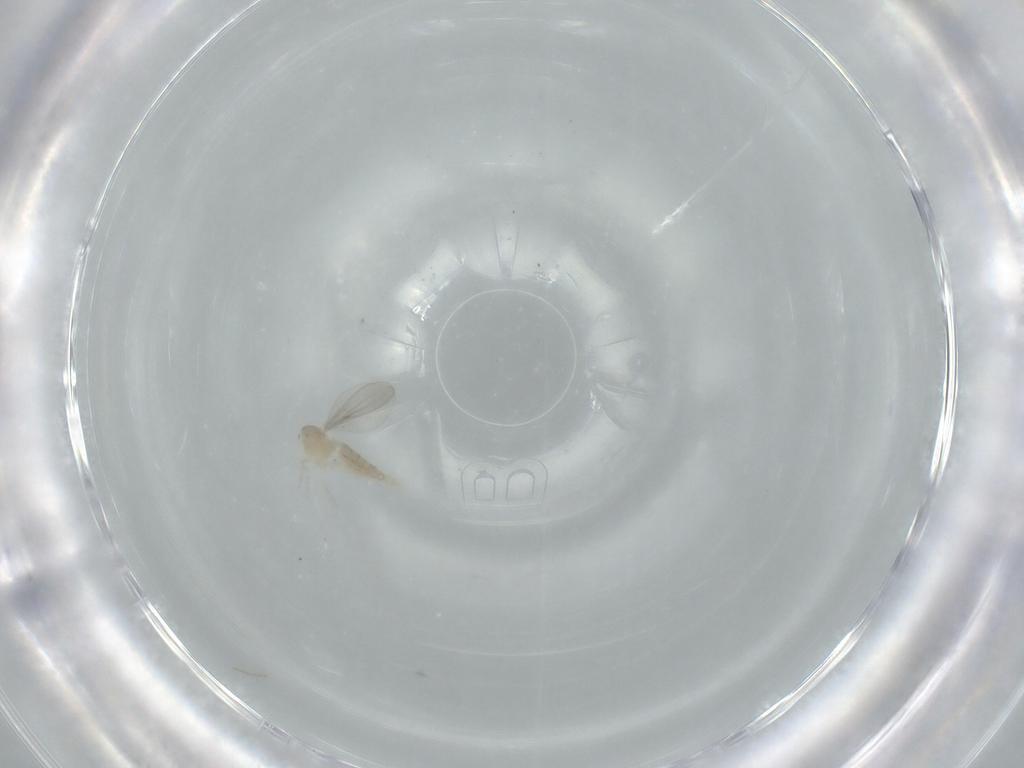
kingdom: Animalia
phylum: Arthropoda
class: Insecta
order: Diptera
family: Cecidomyiidae
